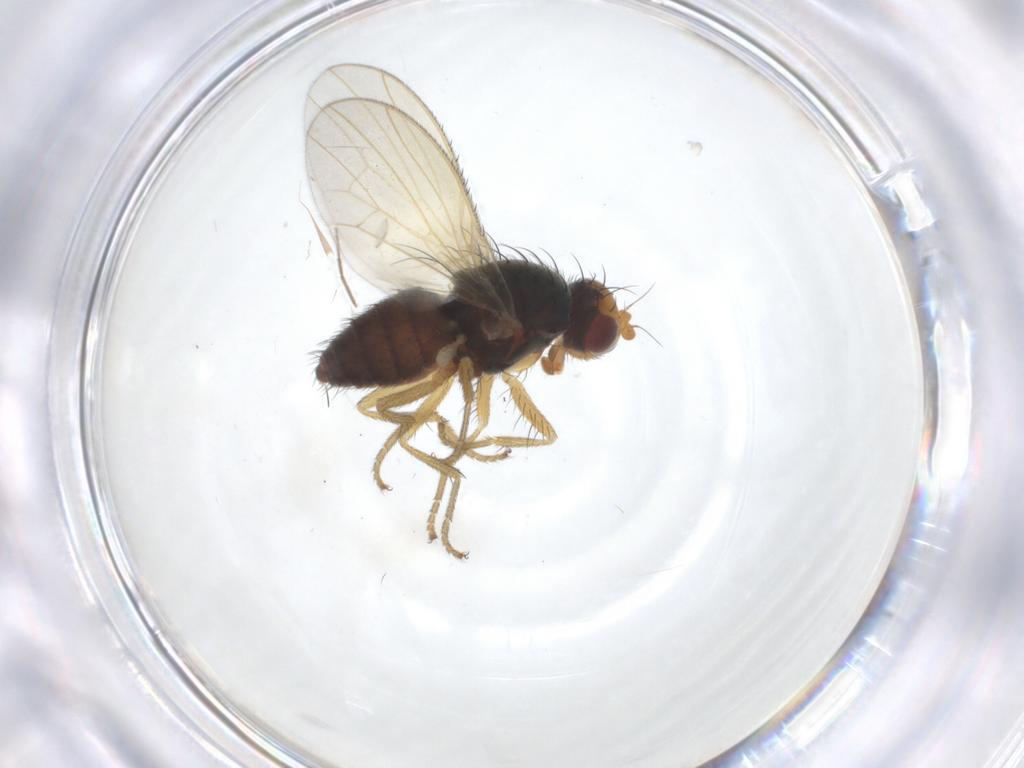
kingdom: Animalia
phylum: Arthropoda
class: Insecta
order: Diptera
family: Heleomyzidae
